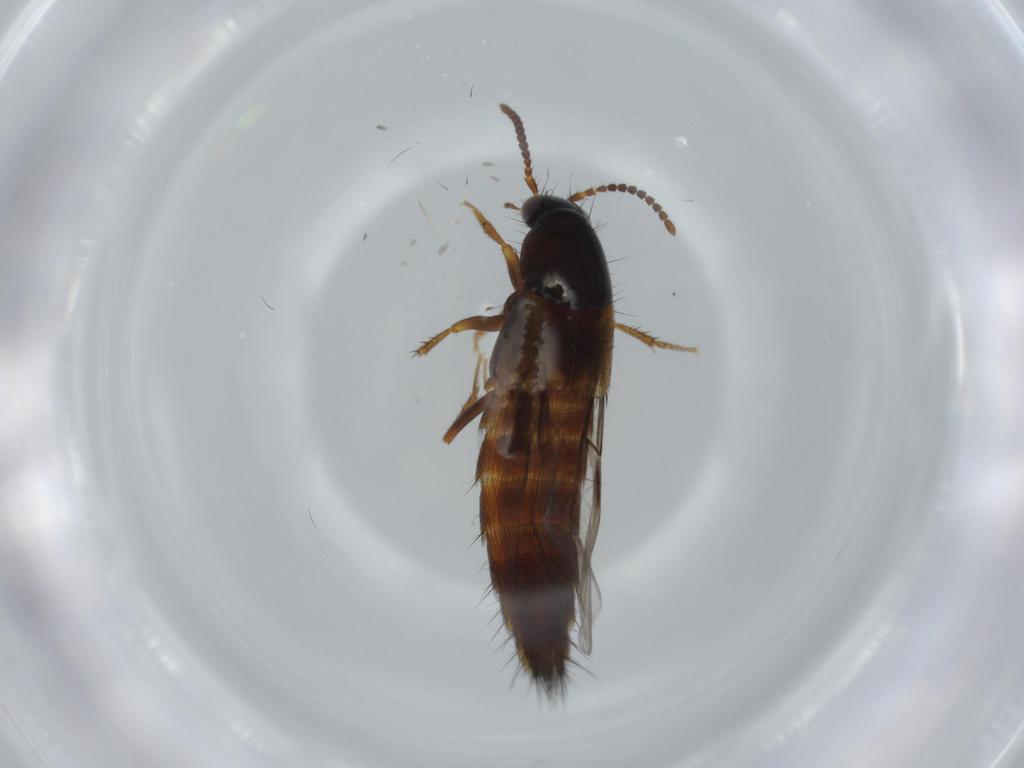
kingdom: Animalia
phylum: Arthropoda
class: Insecta
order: Coleoptera
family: Staphylinidae
